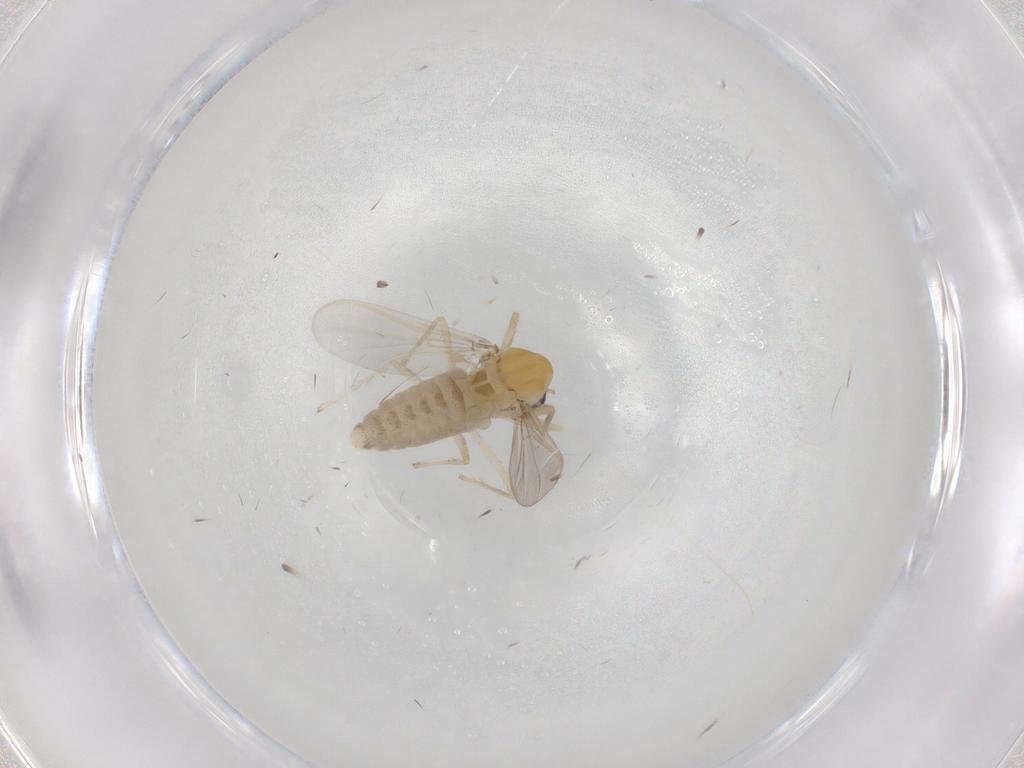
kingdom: Animalia
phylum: Arthropoda
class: Insecta
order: Diptera
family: Chironomidae
